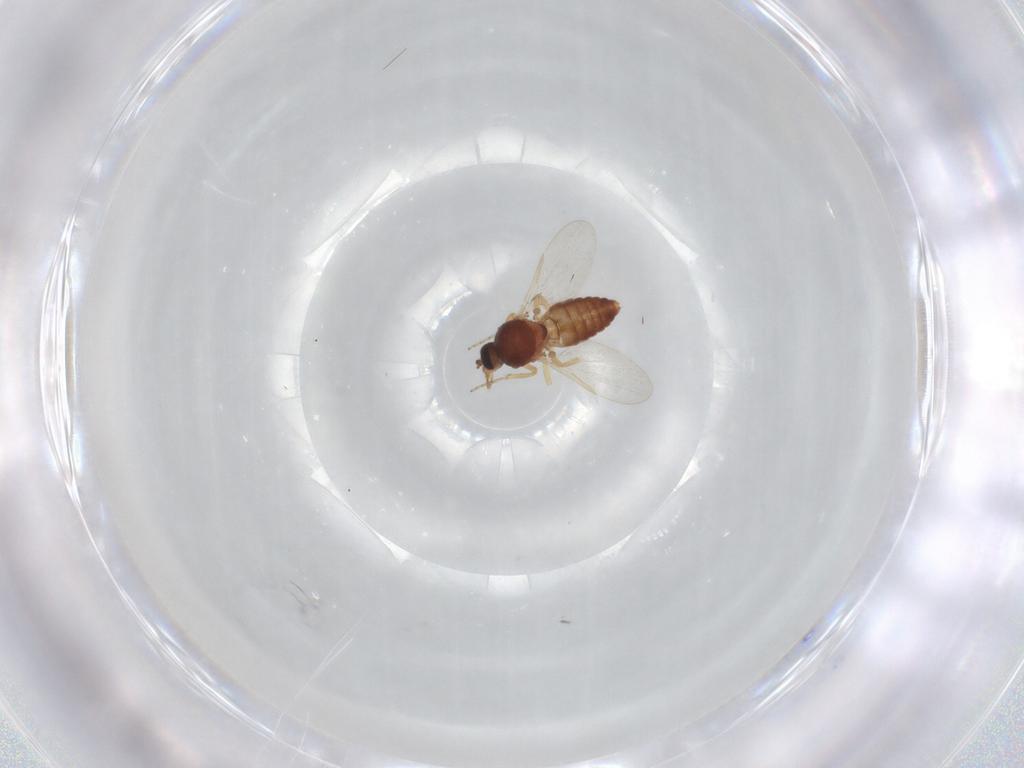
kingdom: Animalia
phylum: Arthropoda
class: Insecta
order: Diptera
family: Ceratopogonidae
